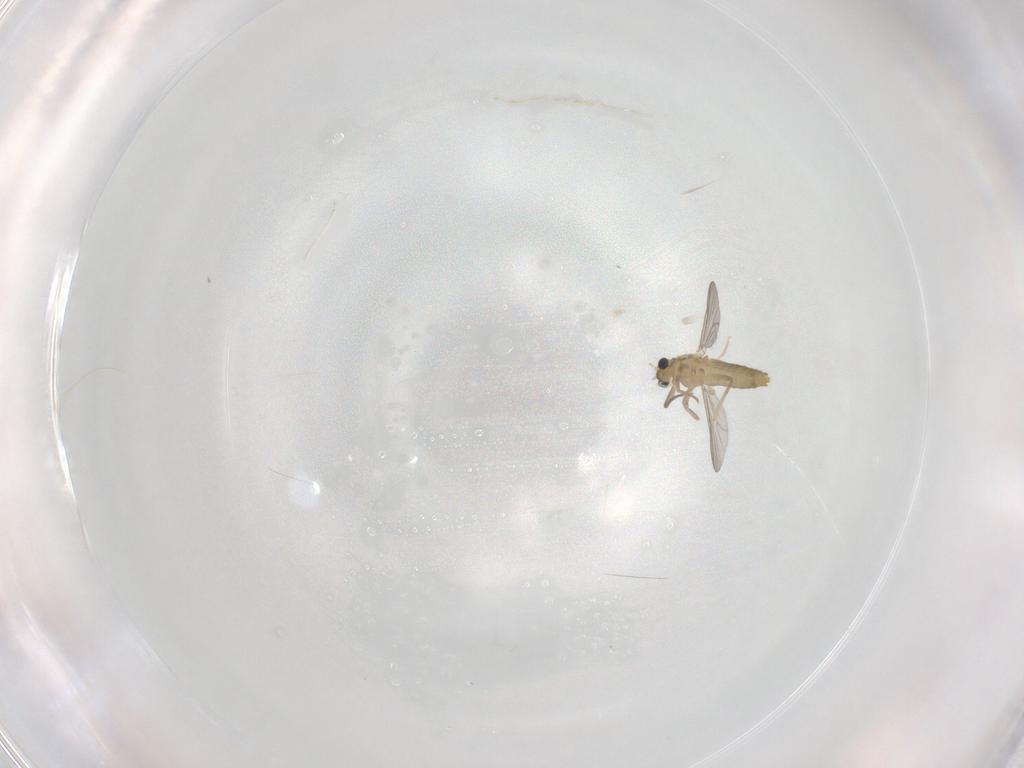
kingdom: Animalia
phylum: Arthropoda
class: Insecta
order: Diptera
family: Chironomidae
